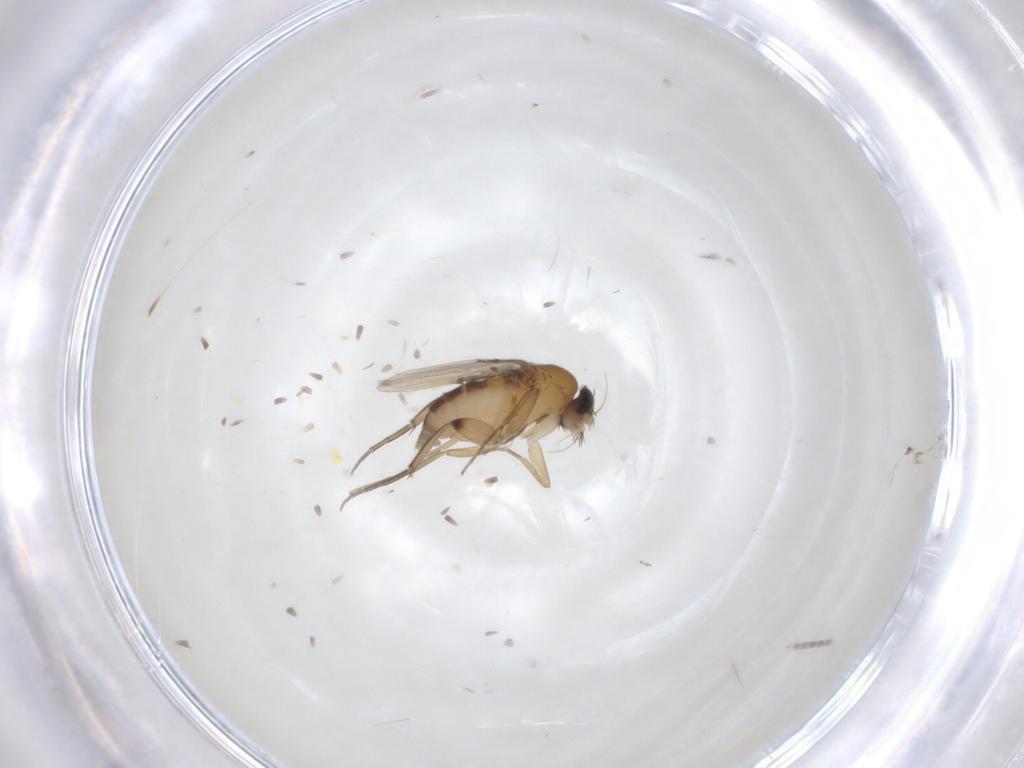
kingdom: Animalia
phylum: Arthropoda
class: Insecta
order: Diptera
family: Phoridae
